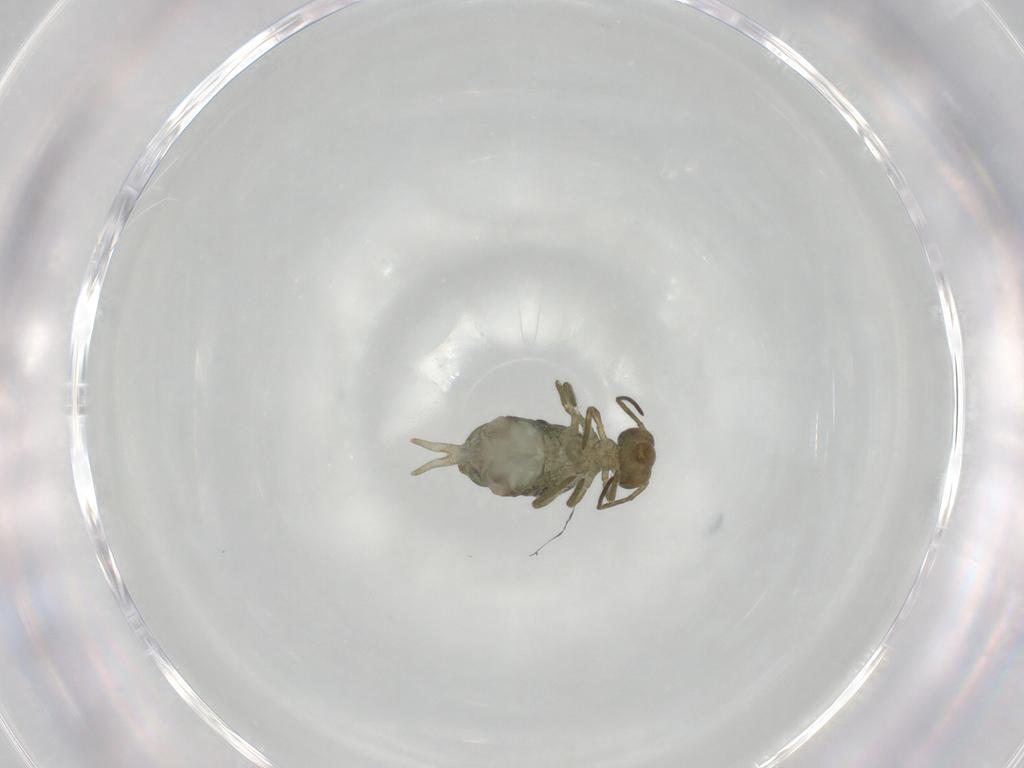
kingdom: Animalia
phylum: Arthropoda
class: Collembola
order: Symphypleona
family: Sminthuridae
